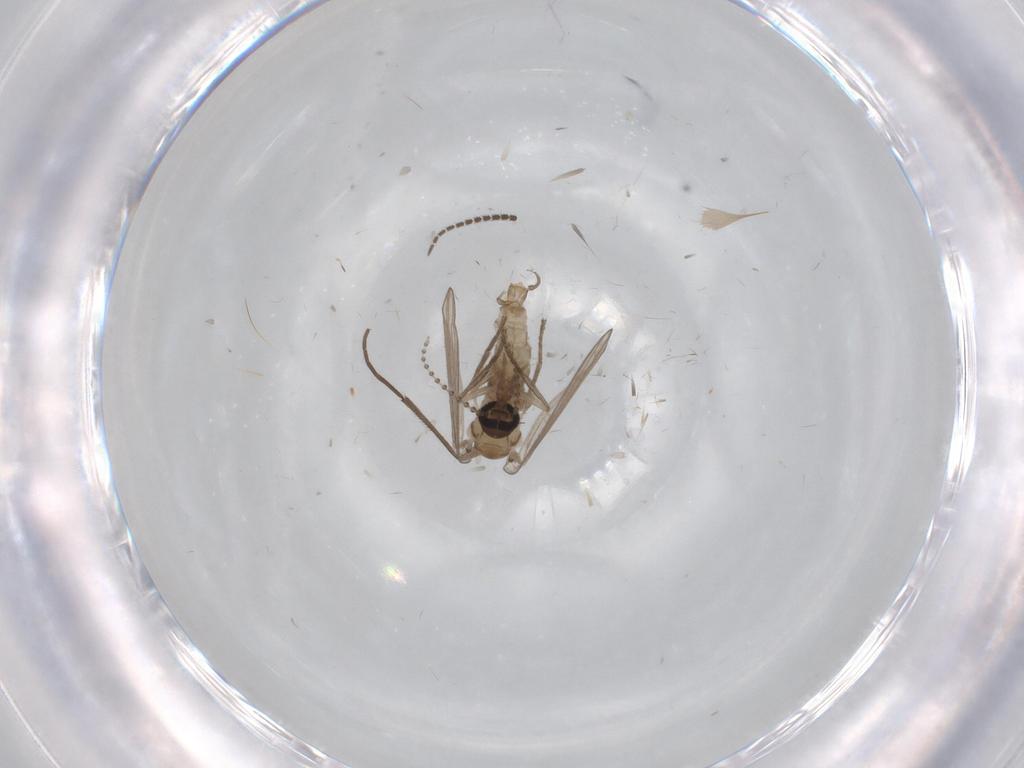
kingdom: Animalia
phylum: Arthropoda
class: Insecta
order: Diptera
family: Psychodidae
